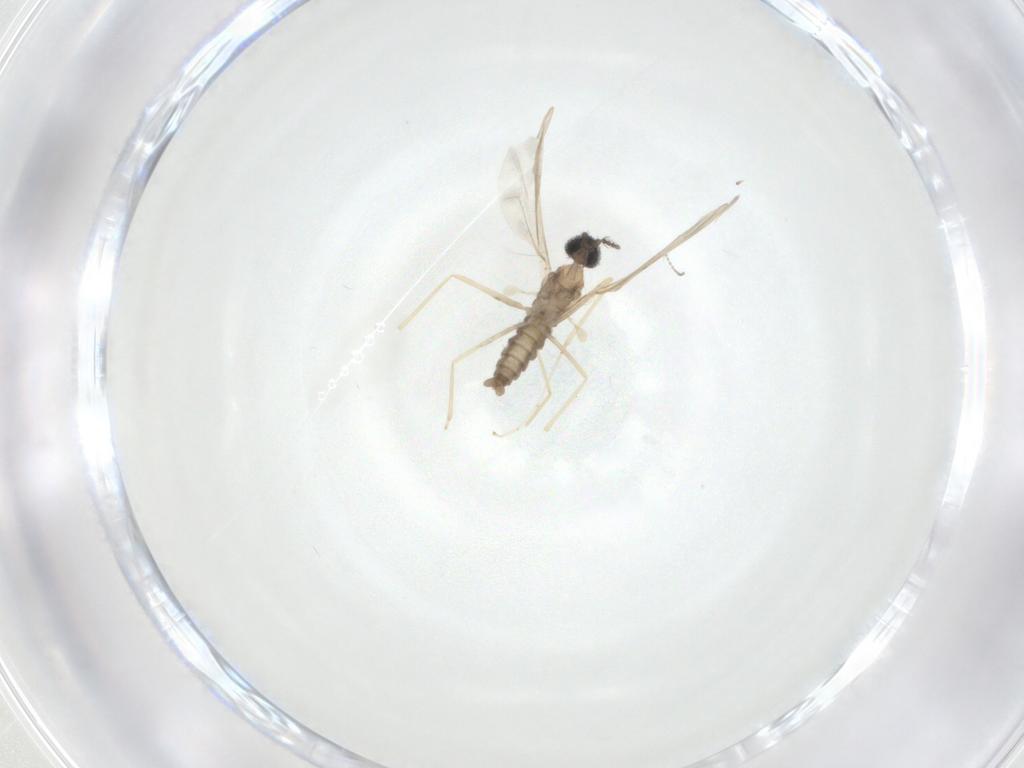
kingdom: Animalia
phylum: Arthropoda
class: Insecta
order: Diptera
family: Cecidomyiidae
